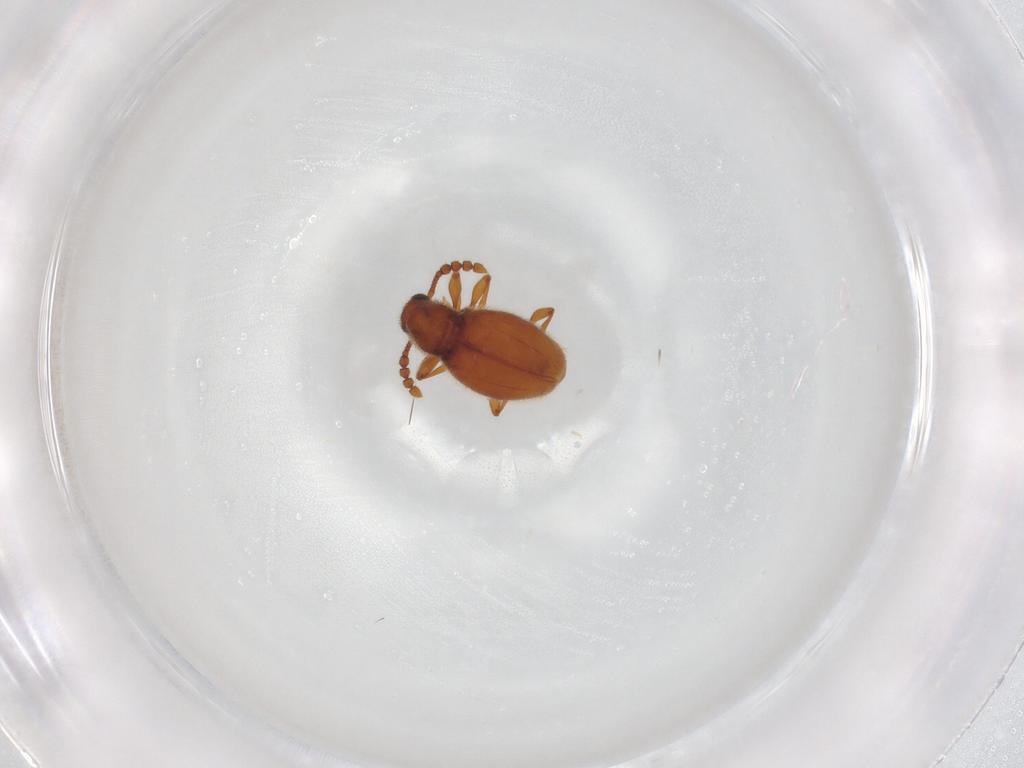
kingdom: Animalia
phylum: Arthropoda
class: Insecta
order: Coleoptera
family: Staphylinidae
